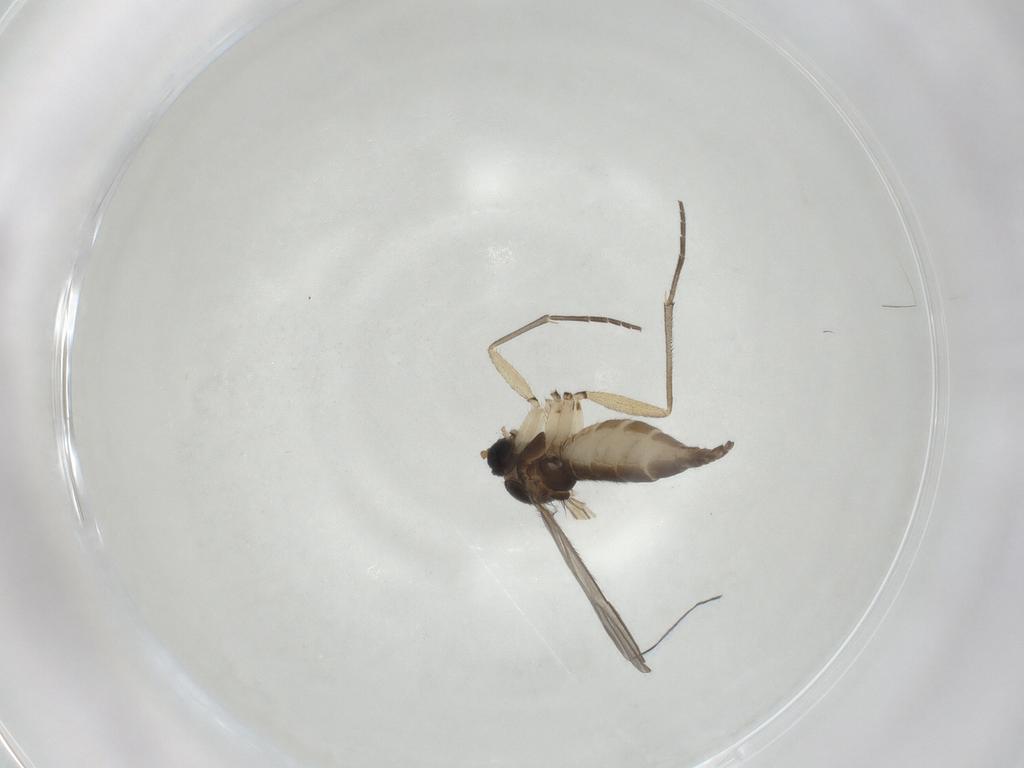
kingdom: Animalia
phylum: Arthropoda
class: Insecta
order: Diptera
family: Sciaridae
